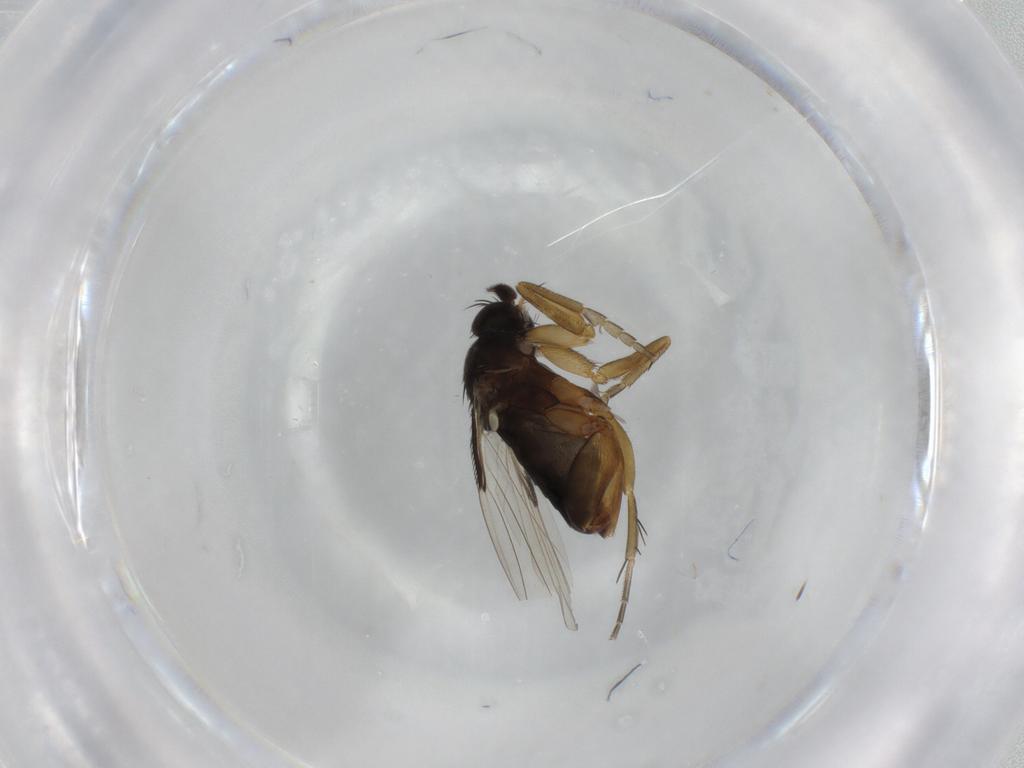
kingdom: Animalia
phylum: Arthropoda
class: Insecta
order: Diptera
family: Phoridae
